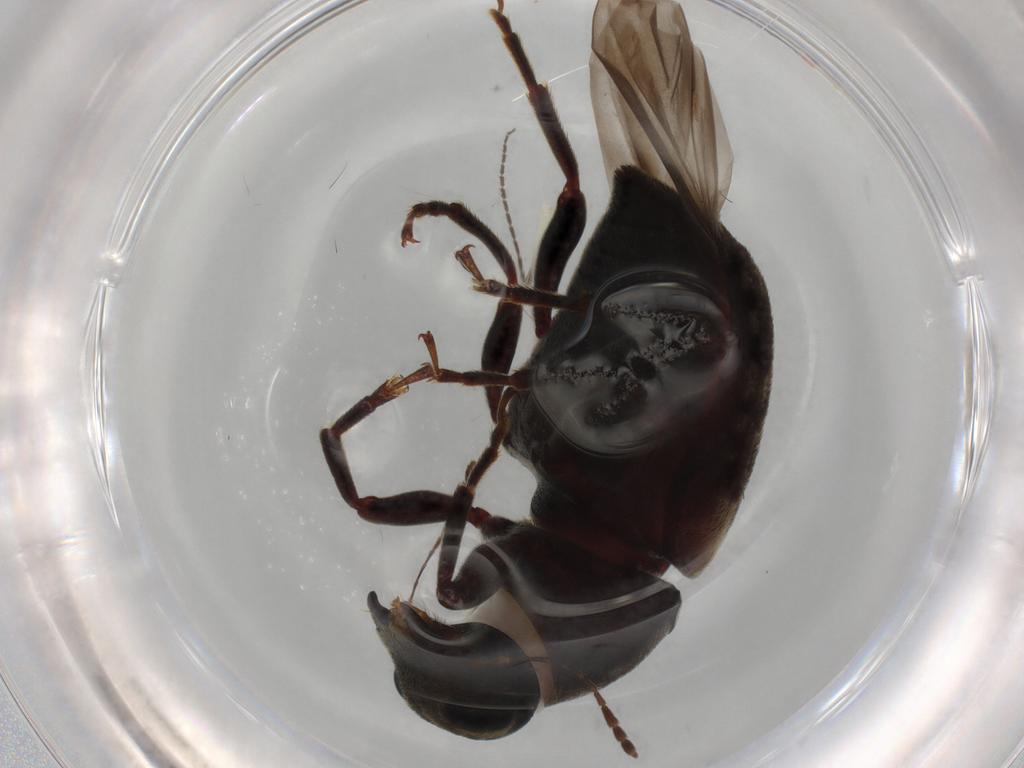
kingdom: Animalia
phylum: Arthropoda
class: Insecta
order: Coleoptera
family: Anthribidae
